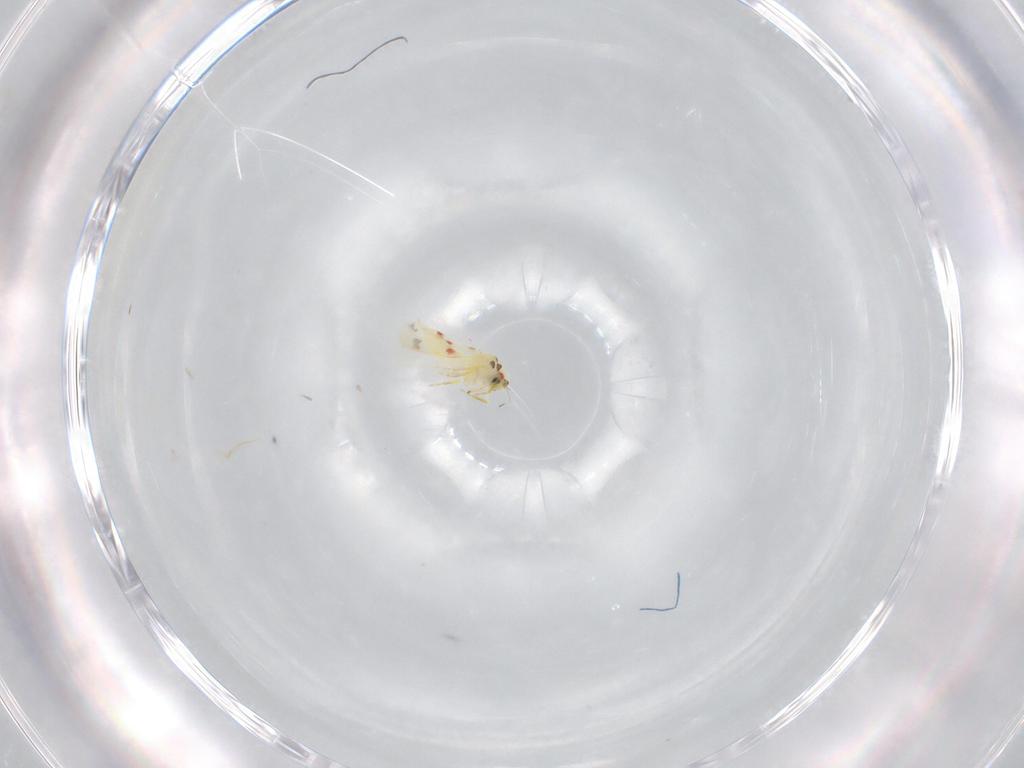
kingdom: Animalia
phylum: Arthropoda
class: Insecta
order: Hemiptera
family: Aleyrodidae
